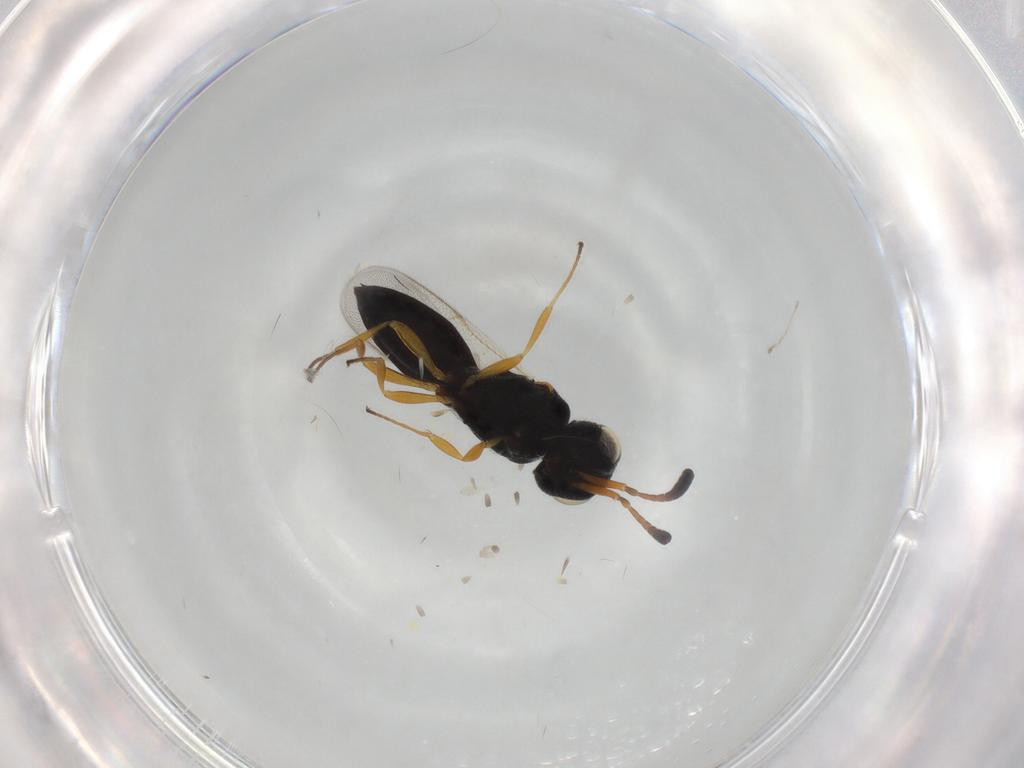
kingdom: Animalia
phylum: Arthropoda
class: Insecta
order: Hymenoptera
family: Scelionidae
